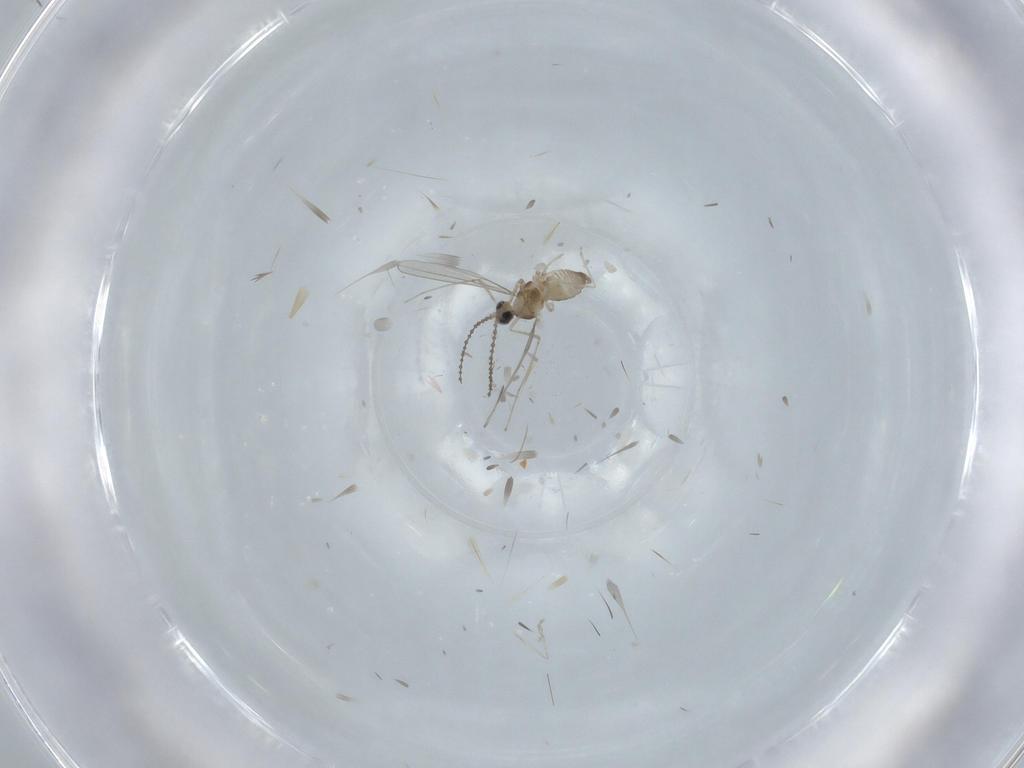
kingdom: Animalia
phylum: Arthropoda
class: Insecta
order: Diptera
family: Cecidomyiidae
